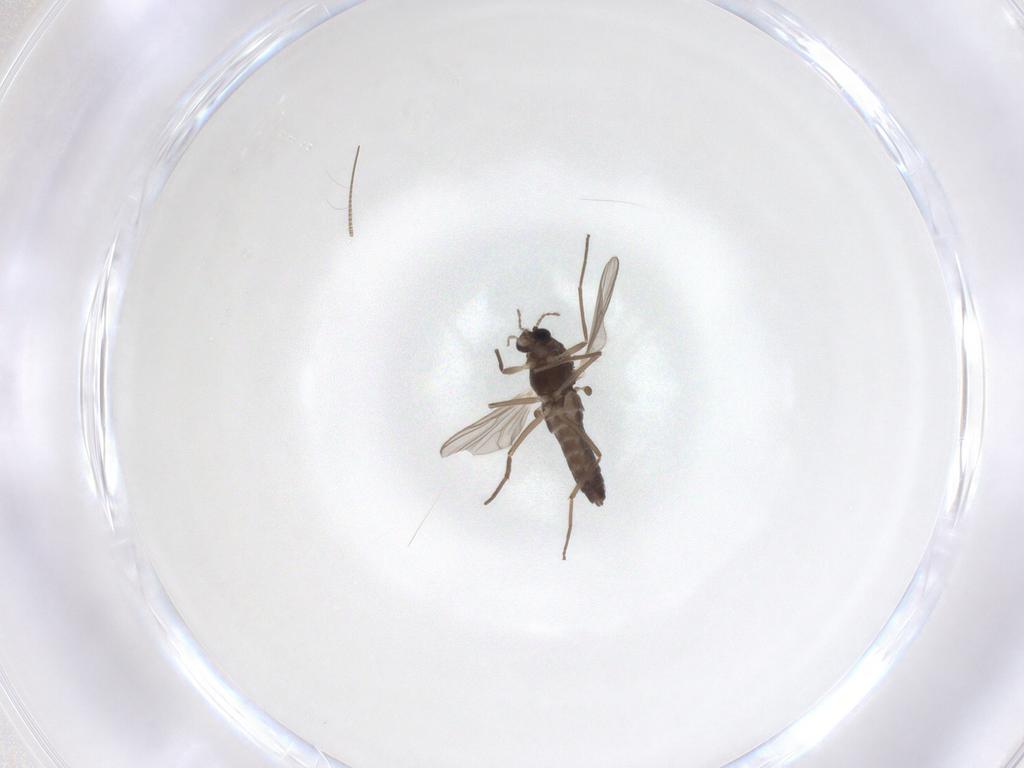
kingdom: Animalia
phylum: Arthropoda
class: Insecta
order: Diptera
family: Chironomidae
